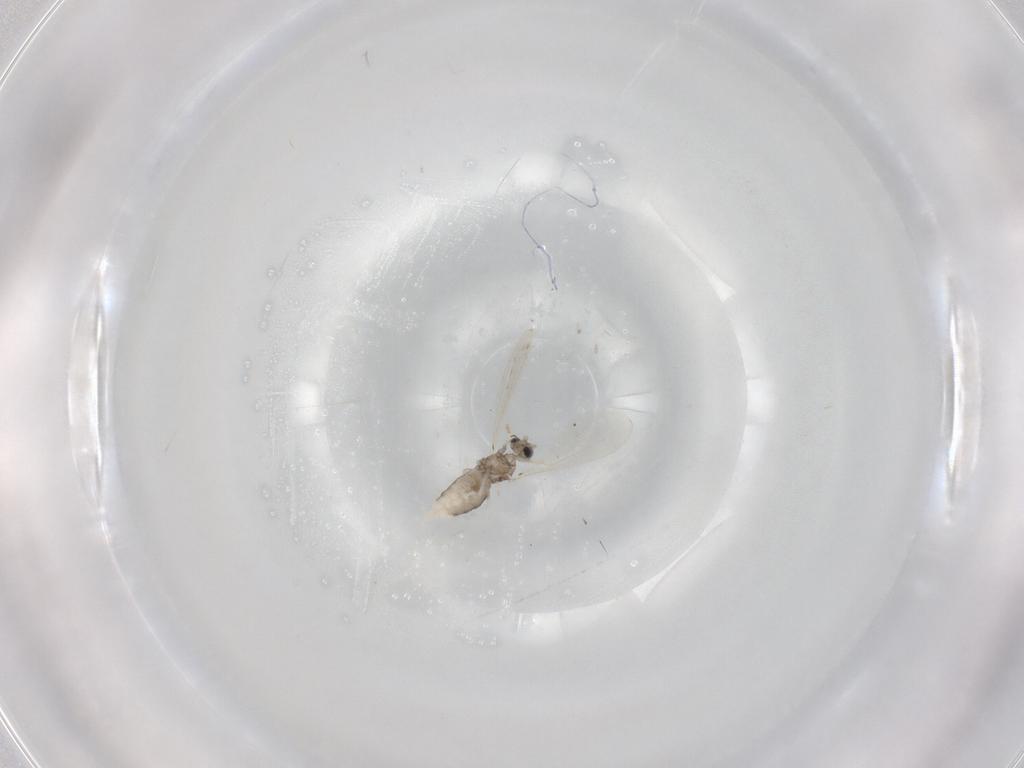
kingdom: Animalia
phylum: Arthropoda
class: Insecta
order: Diptera
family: Cecidomyiidae
